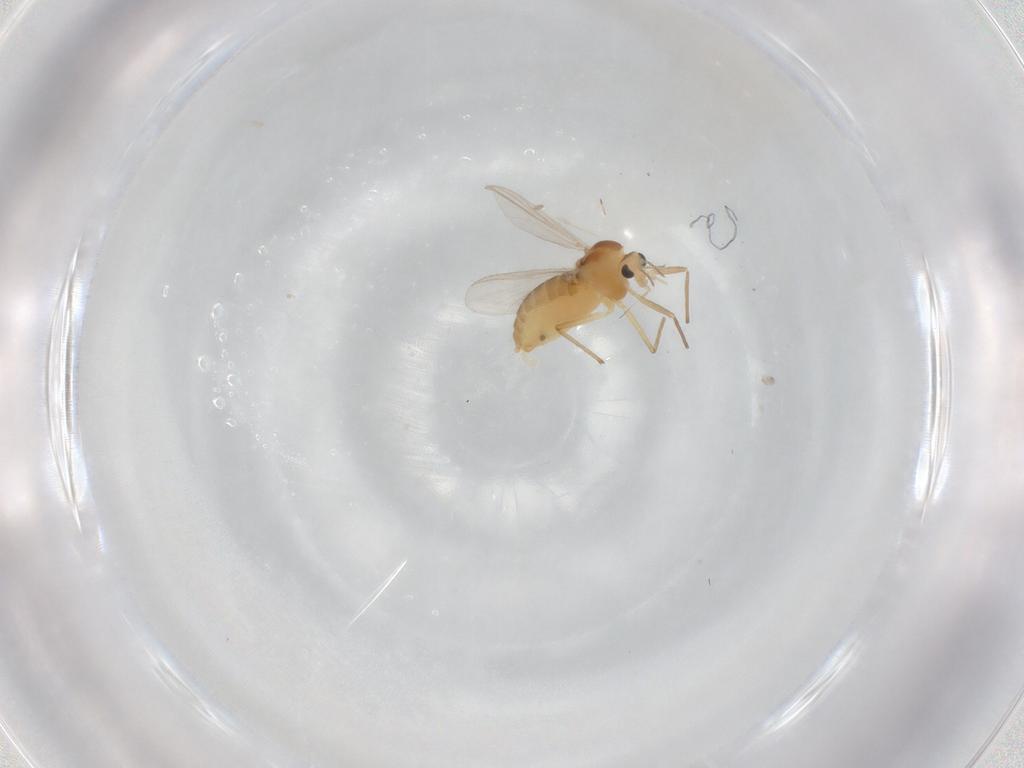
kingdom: Animalia
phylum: Arthropoda
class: Insecta
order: Diptera
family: Chironomidae
